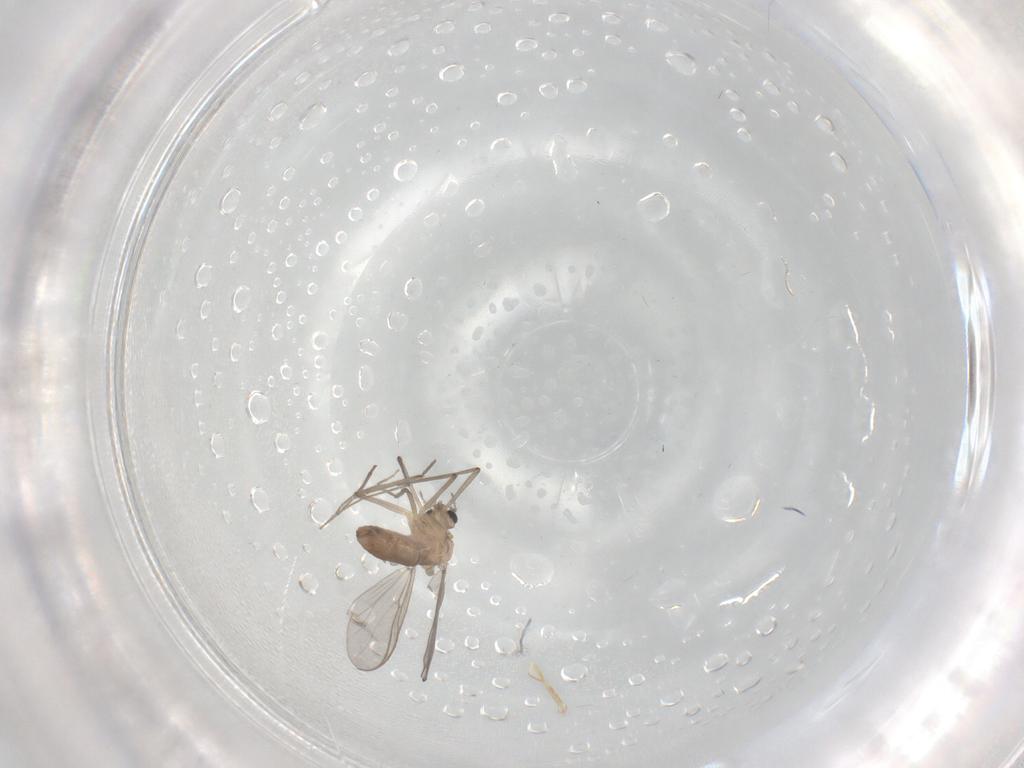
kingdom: Animalia
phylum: Arthropoda
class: Insecta
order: Diptera
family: Chironomidae
